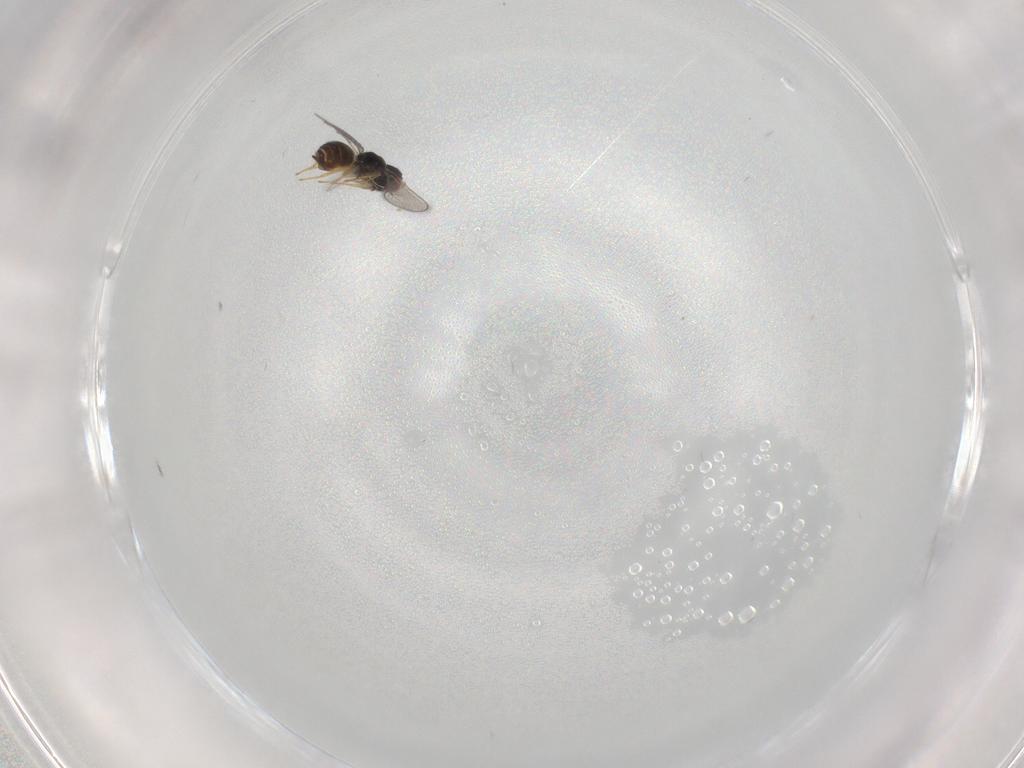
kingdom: Animalia
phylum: Arthropoda
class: Insecta
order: Hymenoptera
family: Eulophidae
